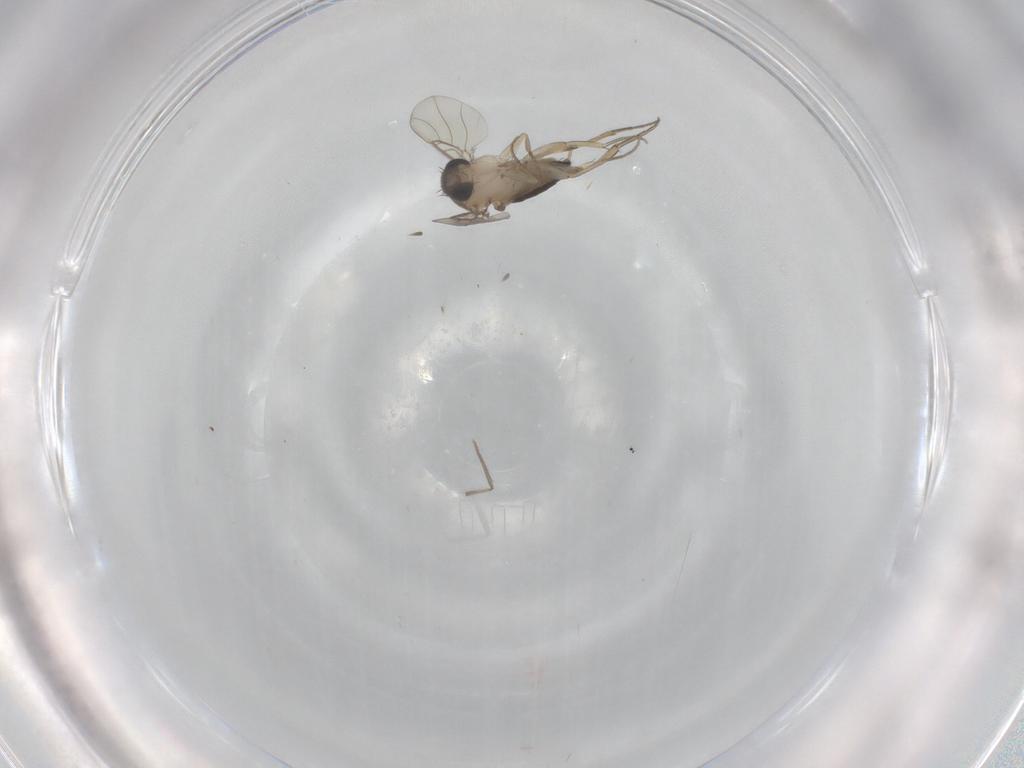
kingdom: Animalia
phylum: Arthropoda
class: Insecta
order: Diptera
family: Phoridae
